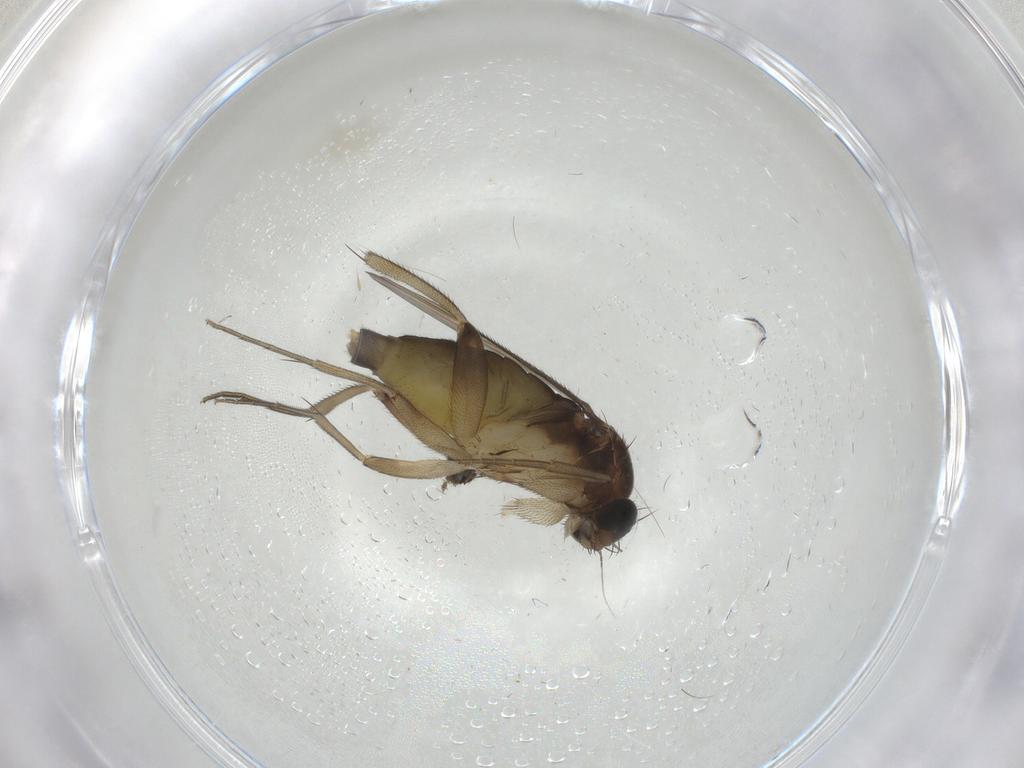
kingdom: Animalia
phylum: Arthropoda
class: Insecta
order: Diptera
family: Phoridae
